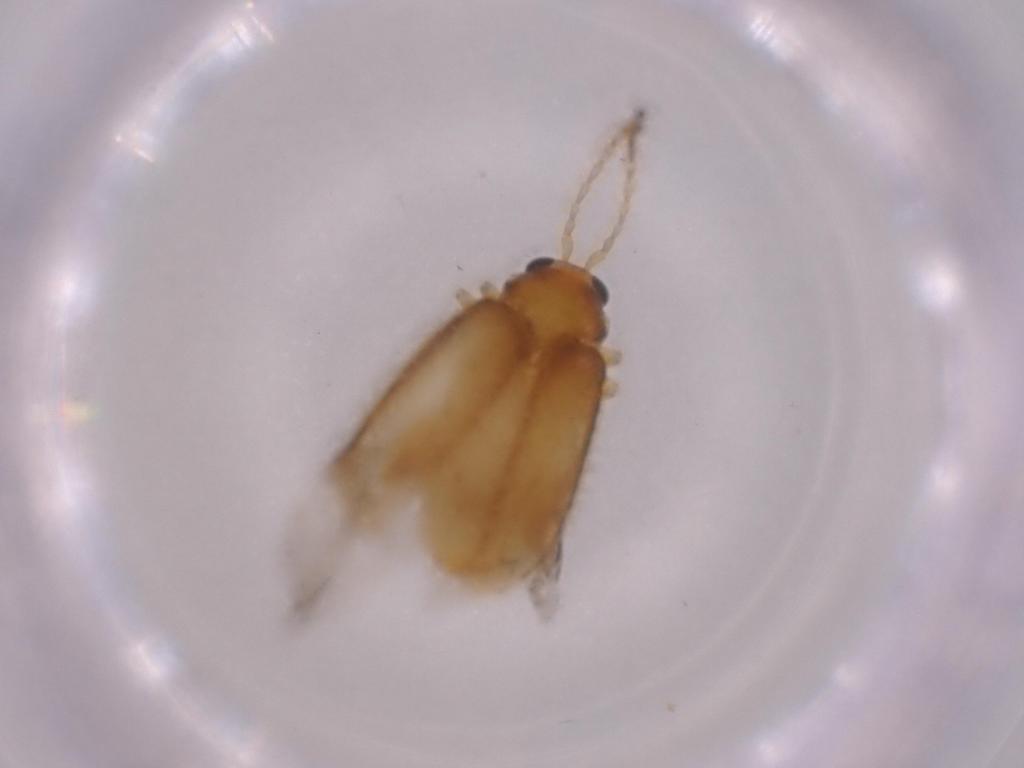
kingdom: Animalia
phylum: Arthropoda
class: Insecta
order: Coleoptera
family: Chrysomelidae
